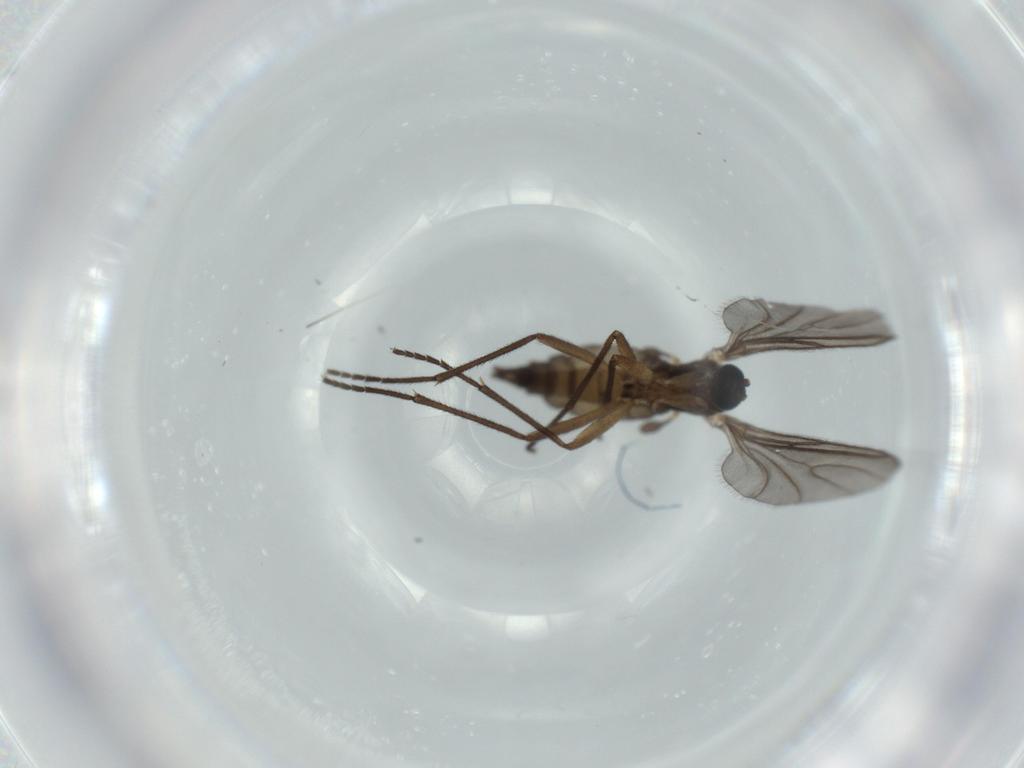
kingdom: Animalia
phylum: Arthropoda
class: Insecta
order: Diptera
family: Sciaridae
